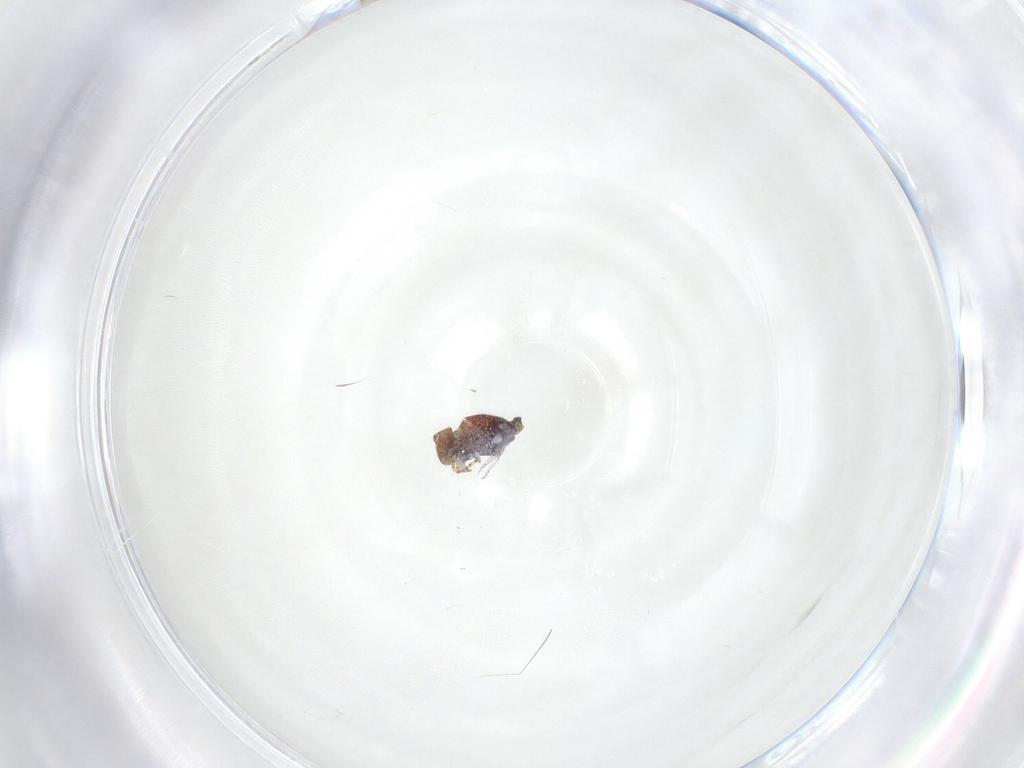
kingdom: Animalia
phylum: Arthropoda
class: Collembola
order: Symphypleona
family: Bourletiellidae
